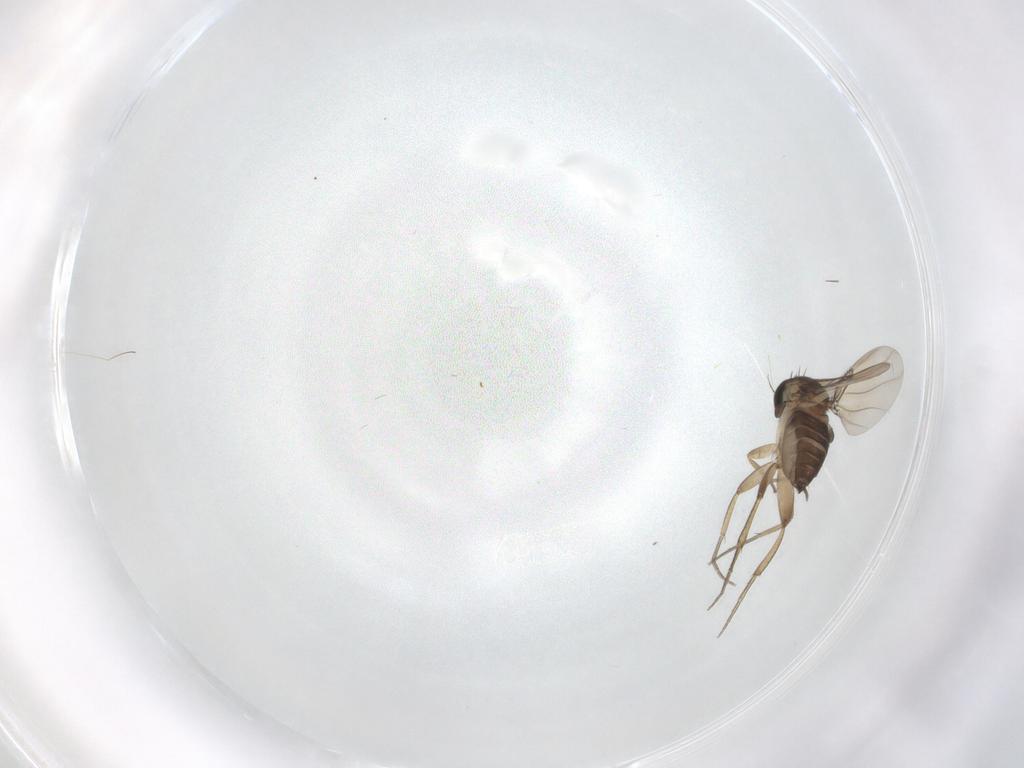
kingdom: Animalia
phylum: Arthropoda
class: Insecta
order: Diptera
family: Phoridae
